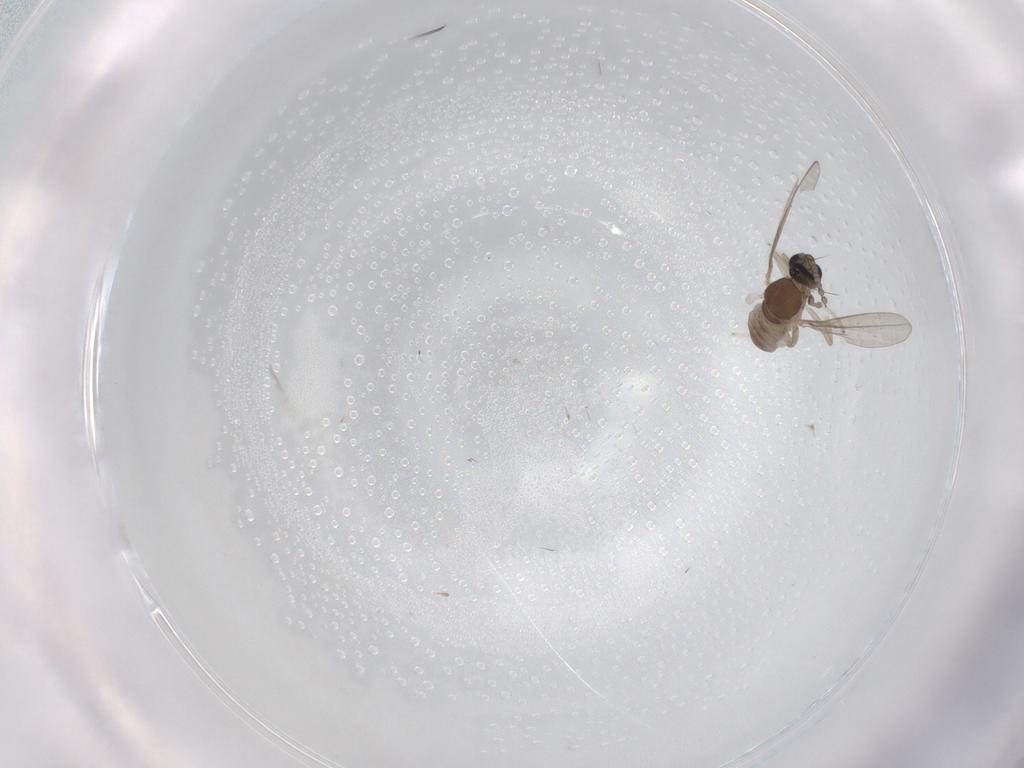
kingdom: Animalia
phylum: Arthropoda
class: Insecta
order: Diptera
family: Cecidomyiidae
